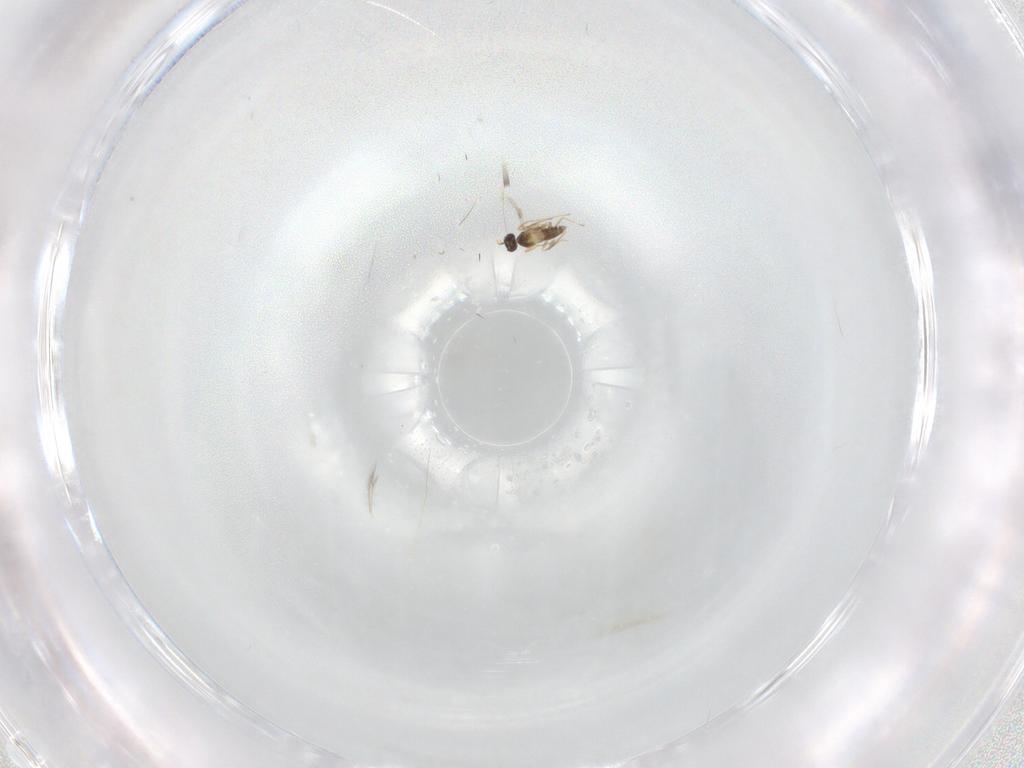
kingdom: Animalia
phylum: Arthropoda
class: Insecta
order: Hymenoptera
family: Mymaridae
